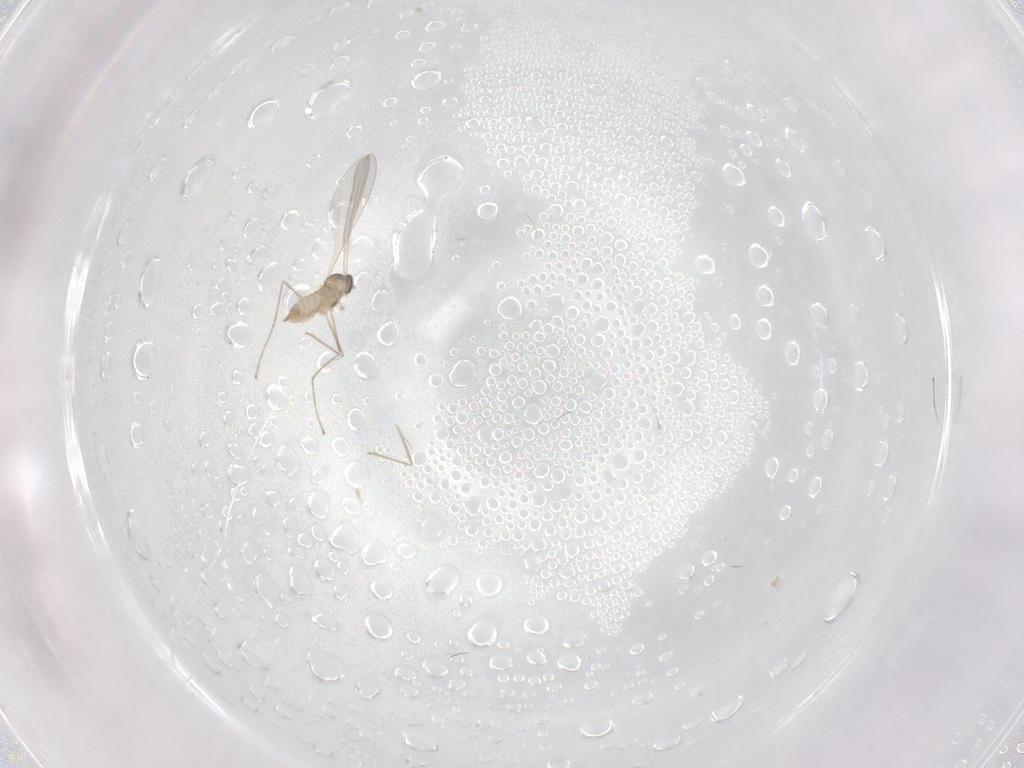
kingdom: Animalia
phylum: Arthropoda
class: Insecta
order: Diptera
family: Cecidomyiidae
